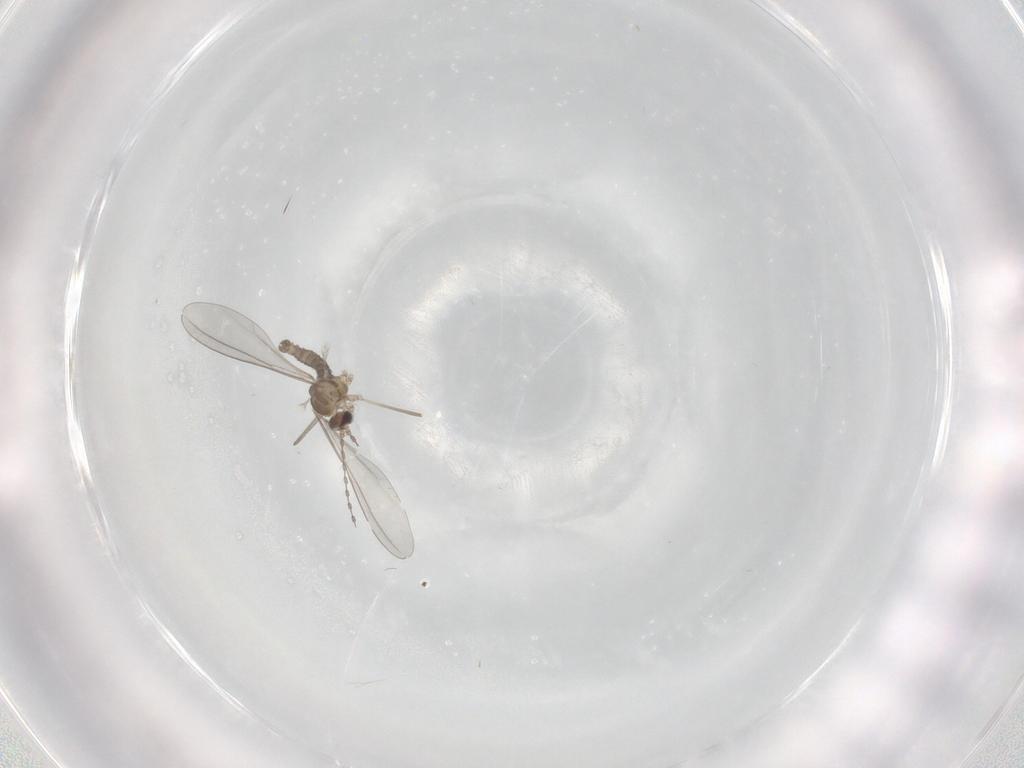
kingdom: Animalia
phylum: Arthropoda
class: Insecta
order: Diptera
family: Cecidomyiidae
